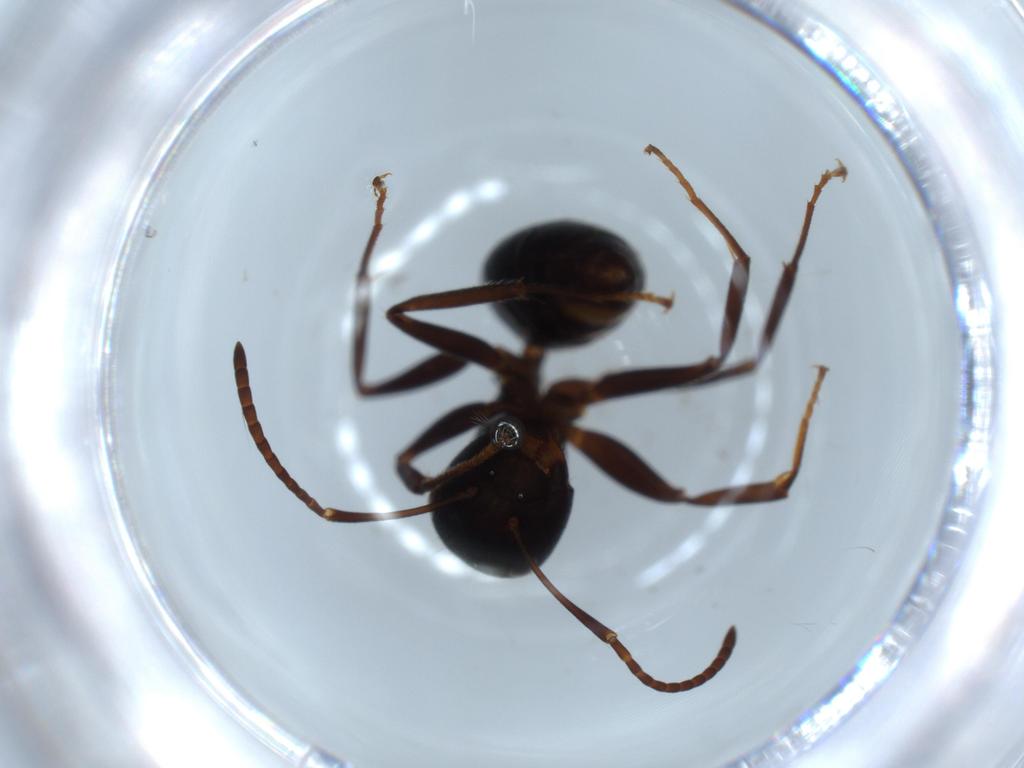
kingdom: Animalia
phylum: Arthropoda
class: Insecta
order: Hymenoptera
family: Formicidae
